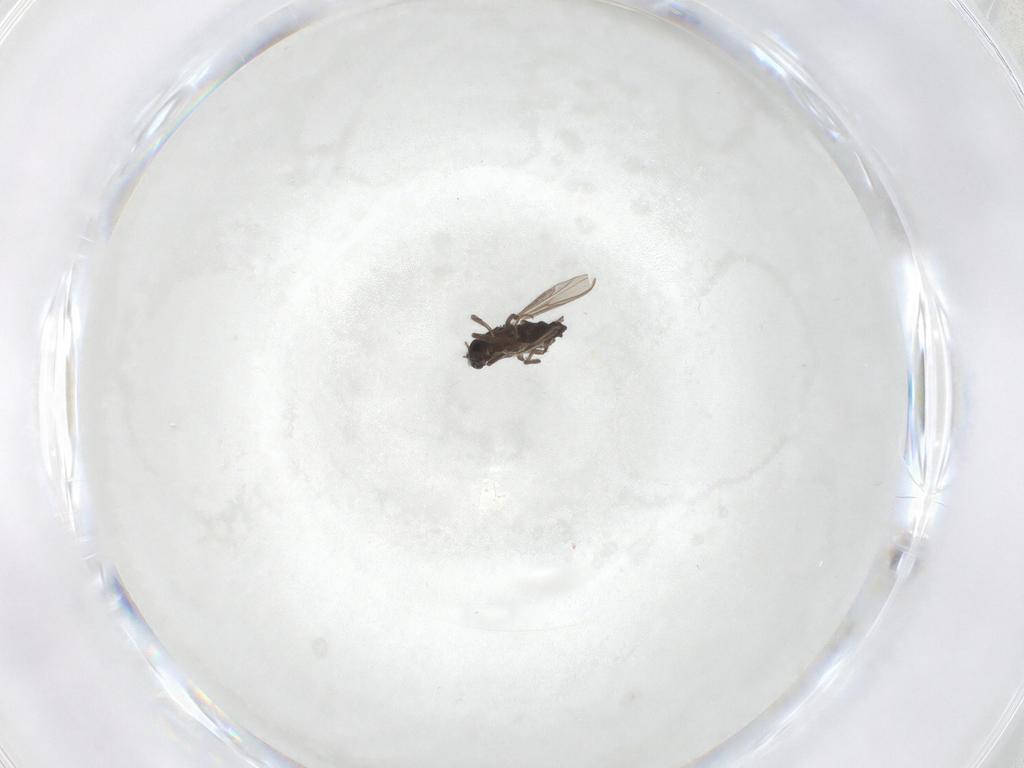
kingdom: Animalia
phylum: Arthropoda
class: Insecta
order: Diptera
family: Chironomidae
